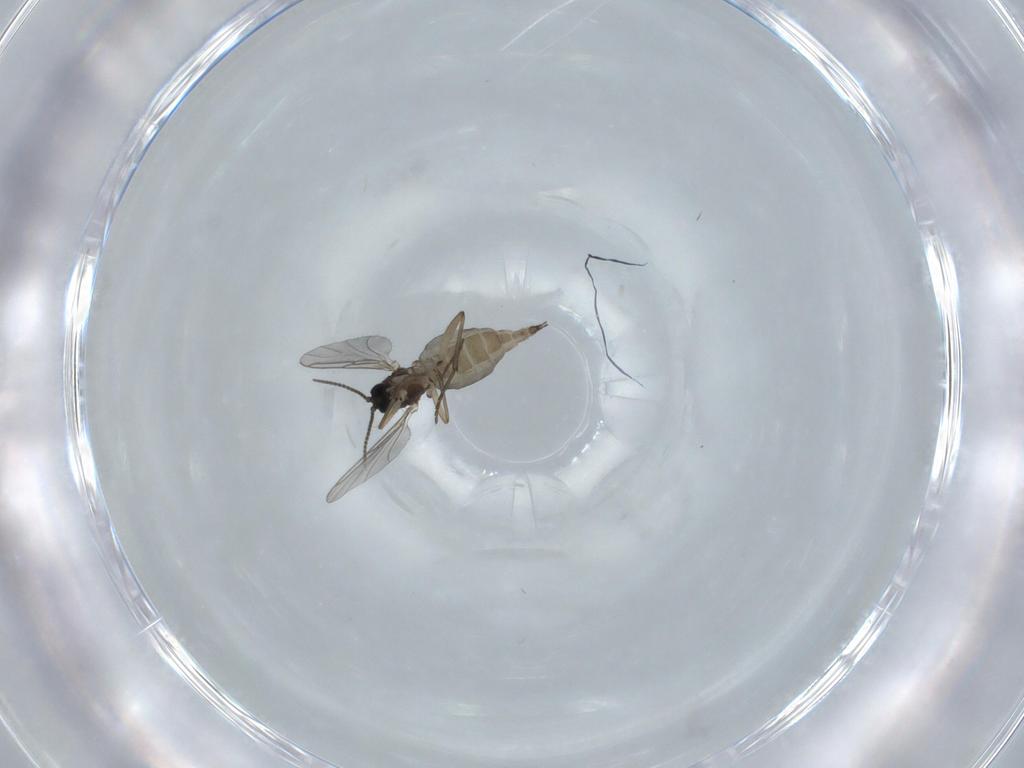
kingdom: Animalia
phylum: Arthropoda
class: Insecta
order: Diptera
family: Sciaridae
